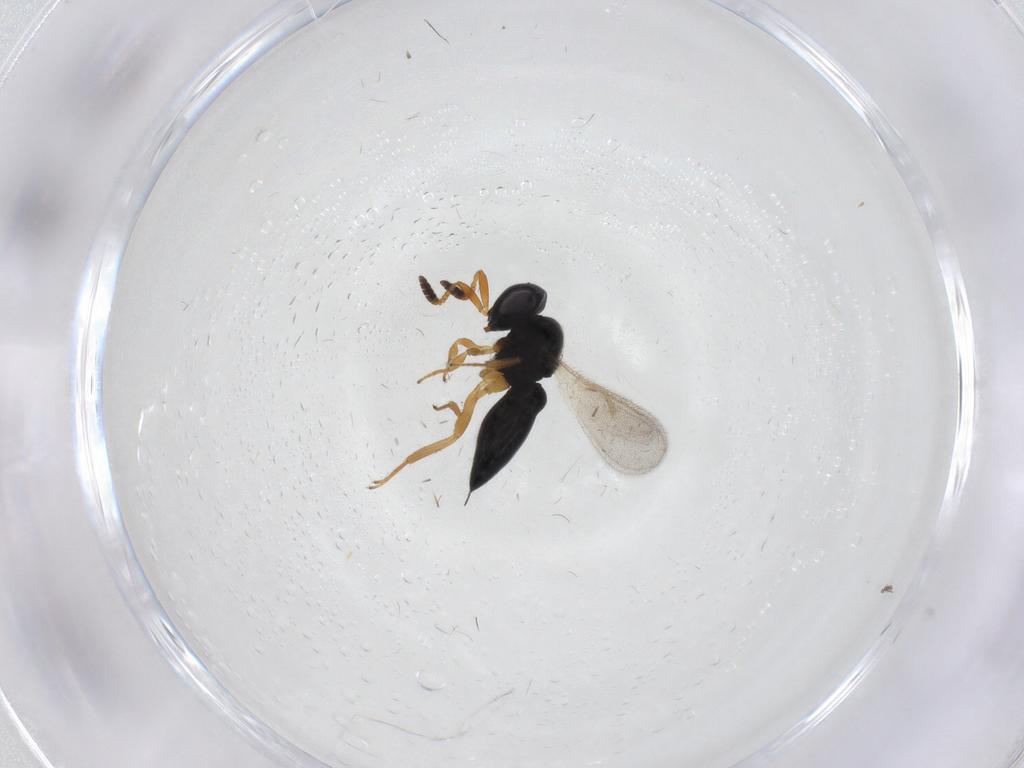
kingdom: Animalia
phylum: Arthropoda
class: Insecta
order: Hymenoptera
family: Scelionidae
